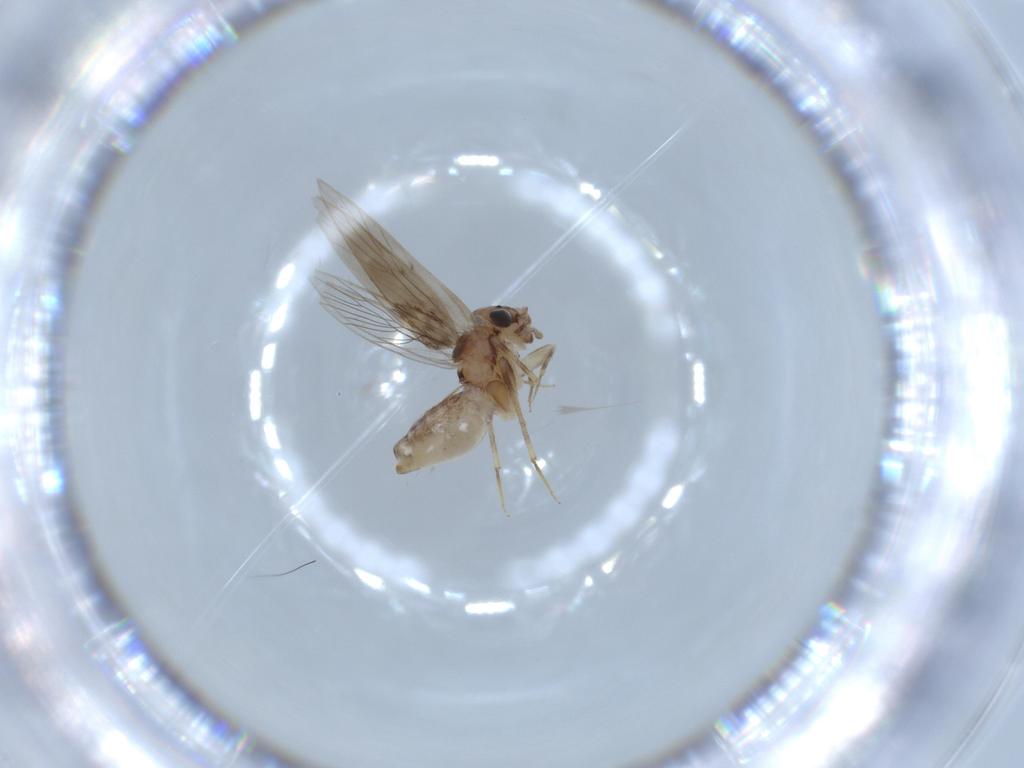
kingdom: Animalia
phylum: Arthropoda
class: Insecta
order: Psocodea
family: Lepidopsocidae
